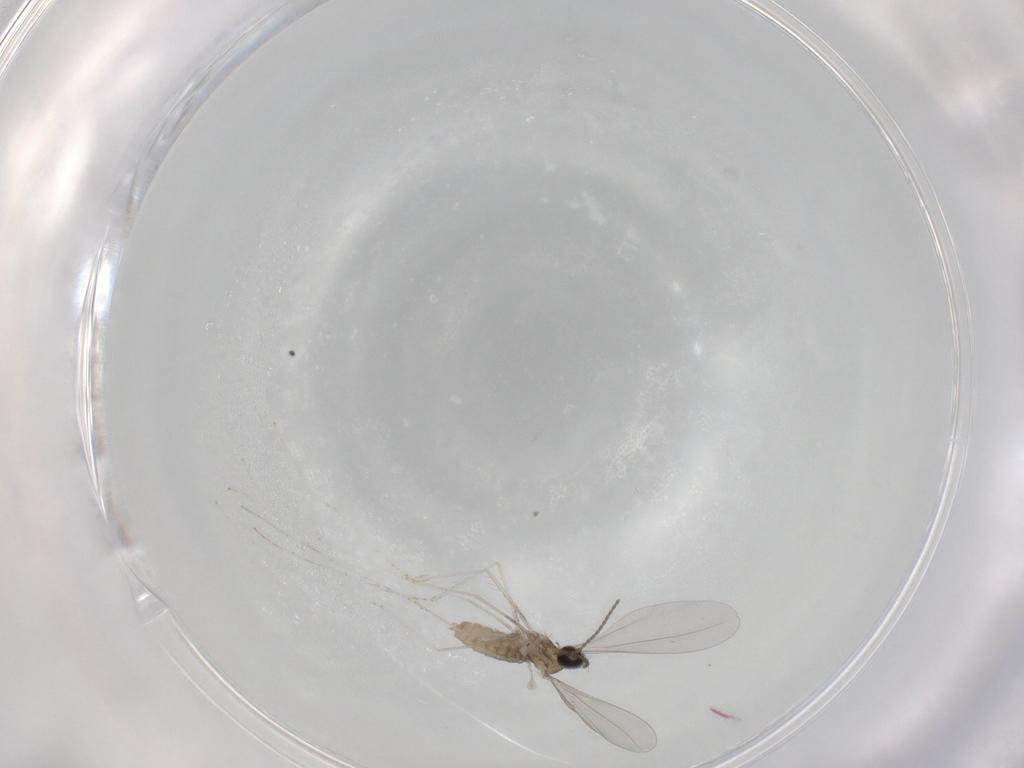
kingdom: Animalia
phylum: Arthropoda
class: Insecta
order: Diptera
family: Cecidomyiidae
